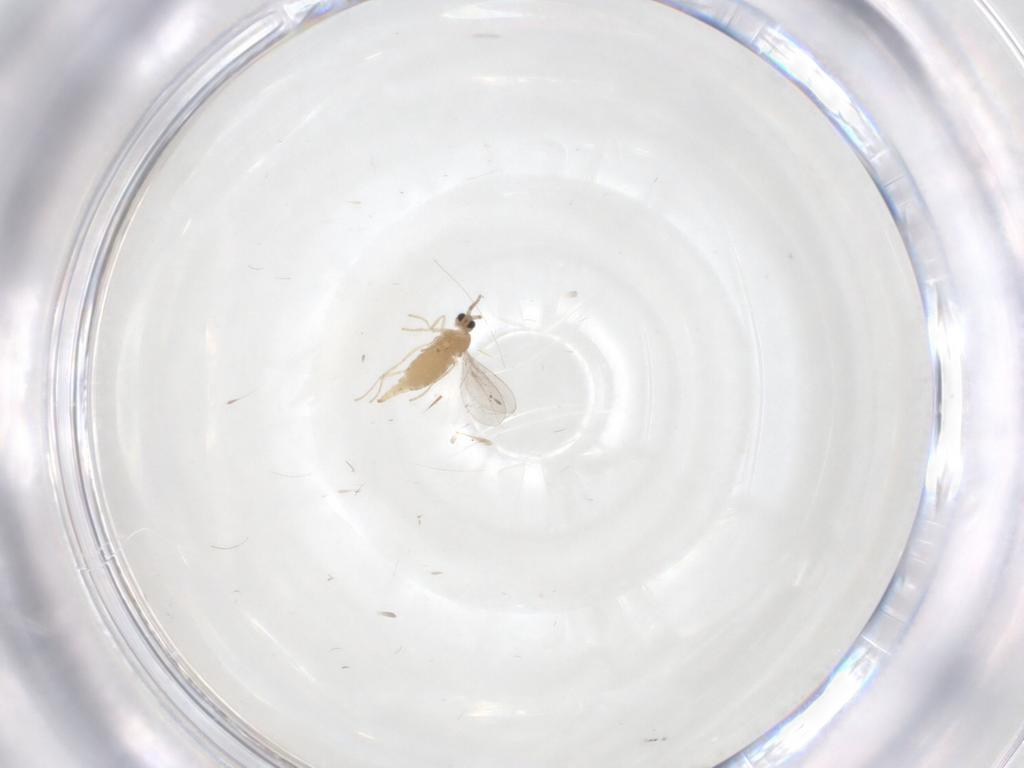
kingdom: Animalia
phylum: Arthropoda
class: Insecta
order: Diptera
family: Cecidomyiidae
